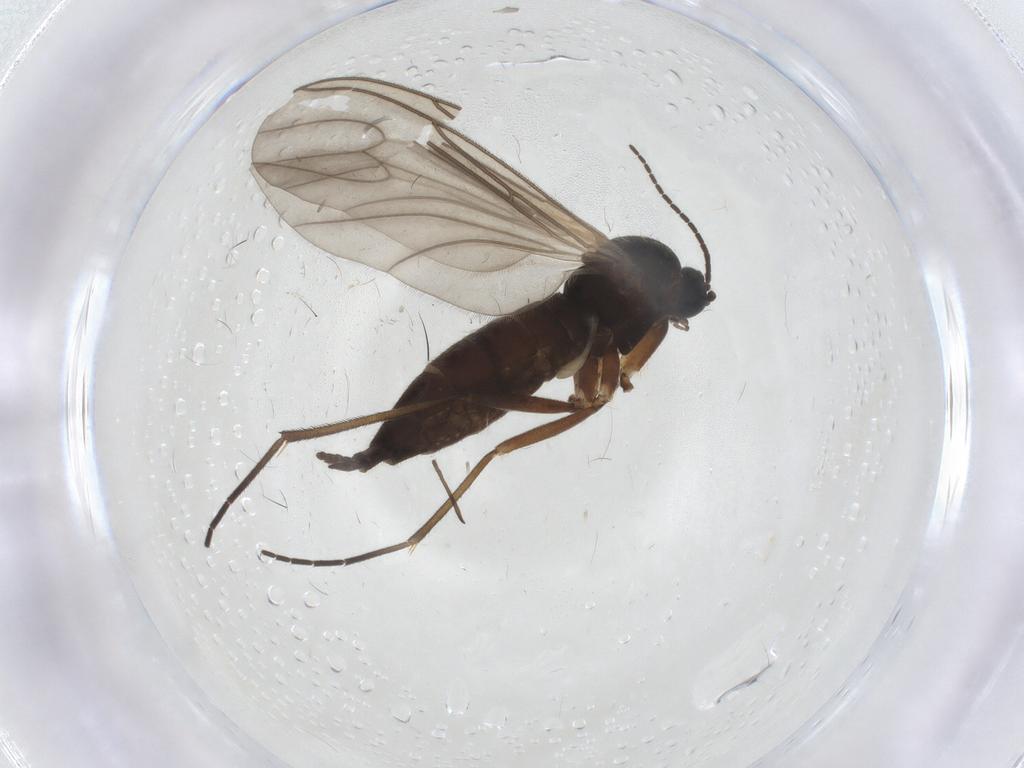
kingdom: Animalia
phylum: Arthropoda
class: Insecta
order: Diptera
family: Sciaridae
